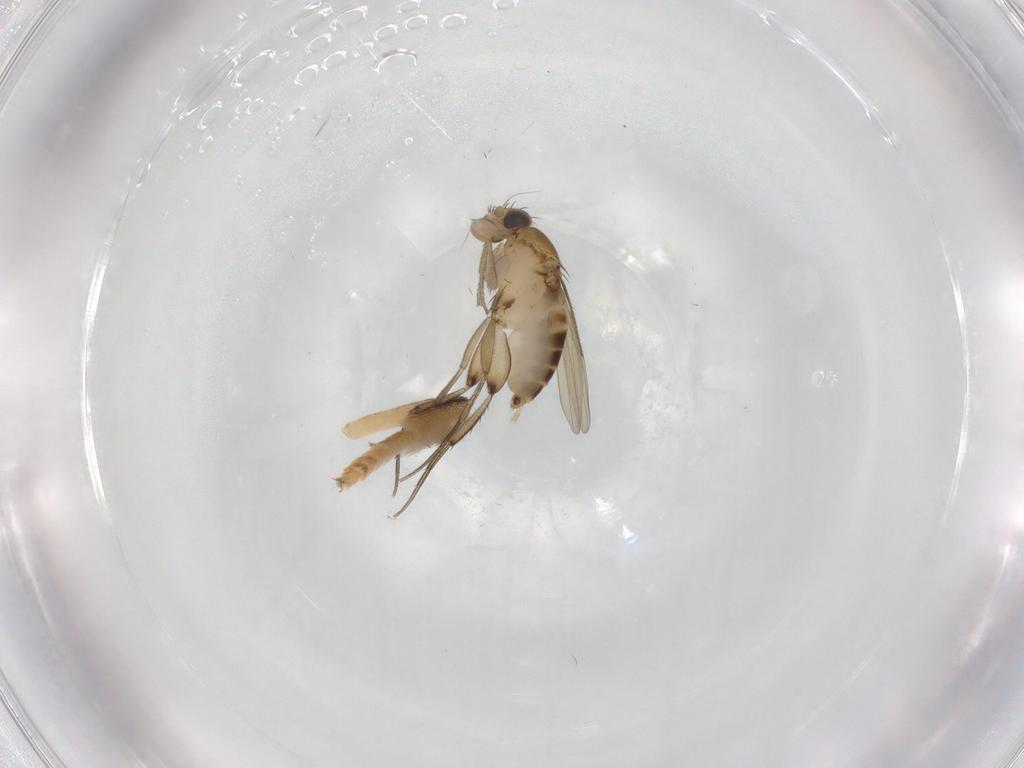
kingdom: Animalia
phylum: Arthropoda
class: Insecta
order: Diptera
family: Phoridae
